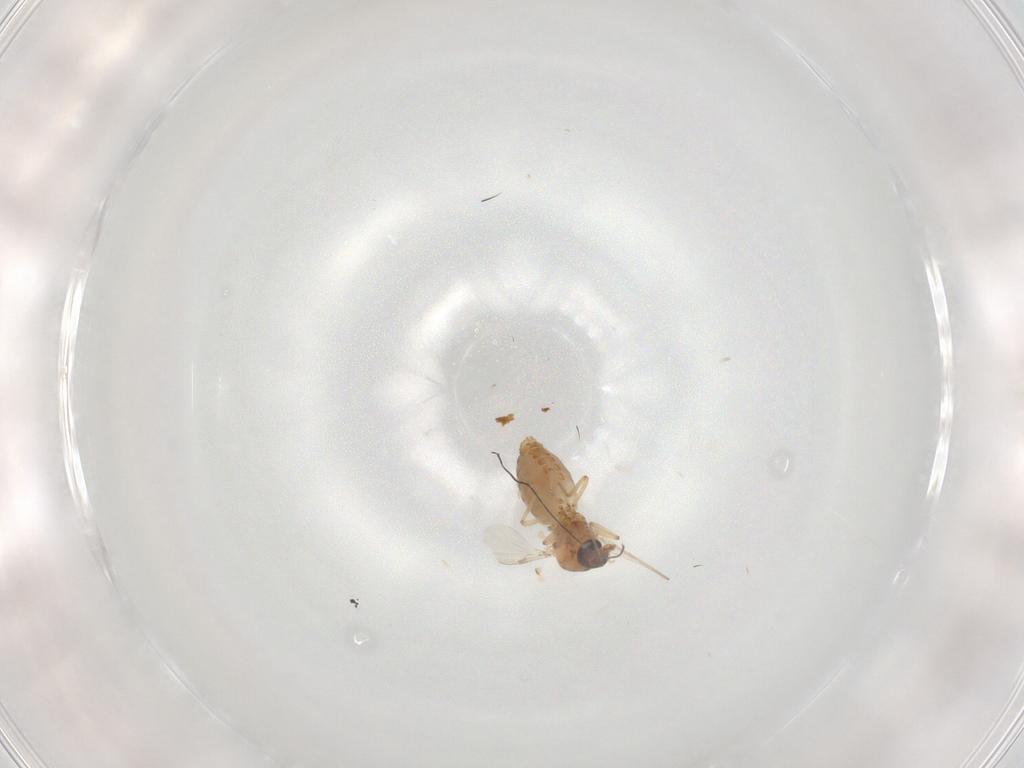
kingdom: Animalia
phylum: Arthropoda
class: Insecta
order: Diptera
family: Ceratopogonidae
